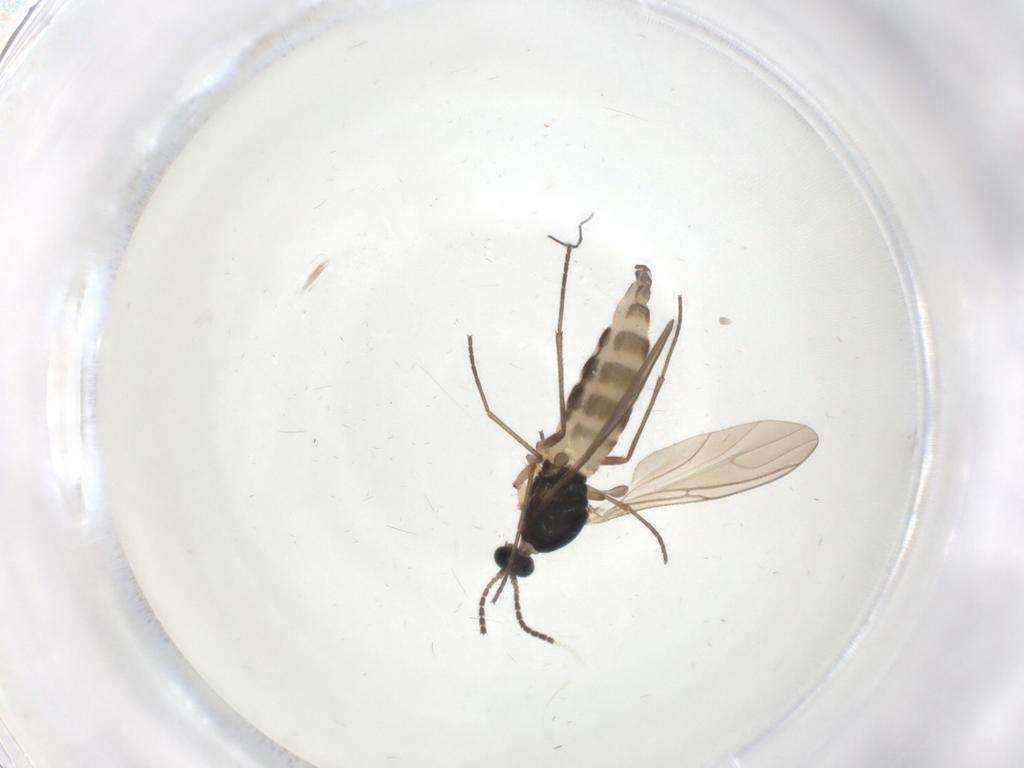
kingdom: Animalia
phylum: Arthropoda
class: Insecta
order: Diptera
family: Sciaridae
